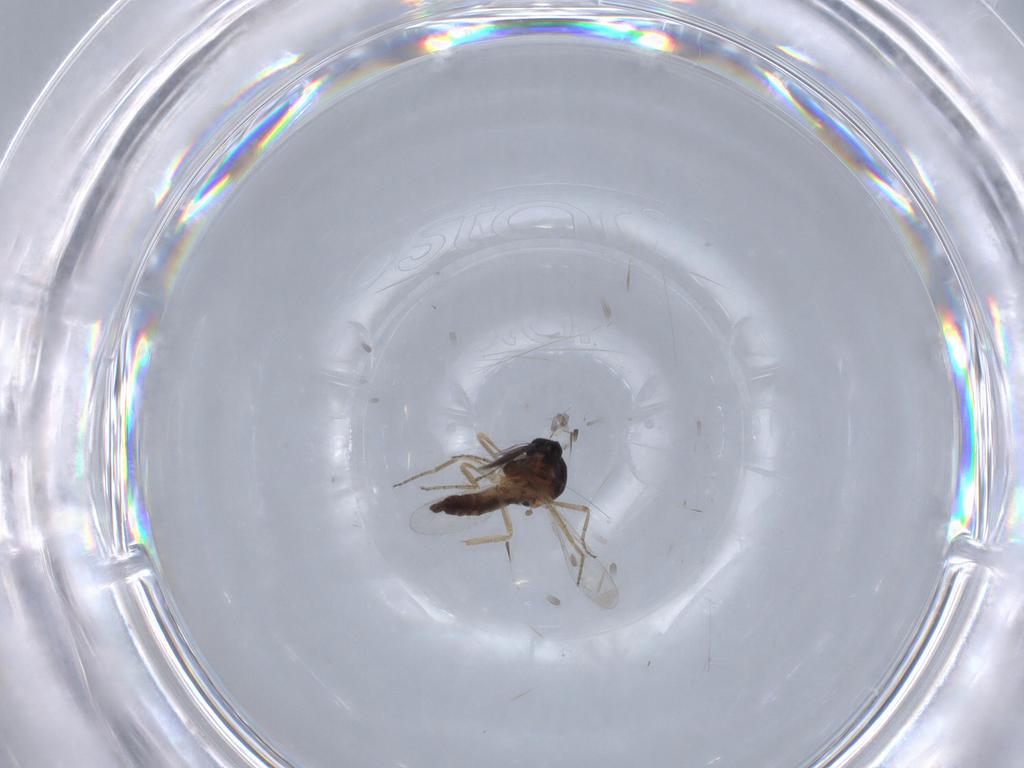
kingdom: Animalia
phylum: Arthropoda
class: Insecta
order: Diptera
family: Ceratopogonidae
